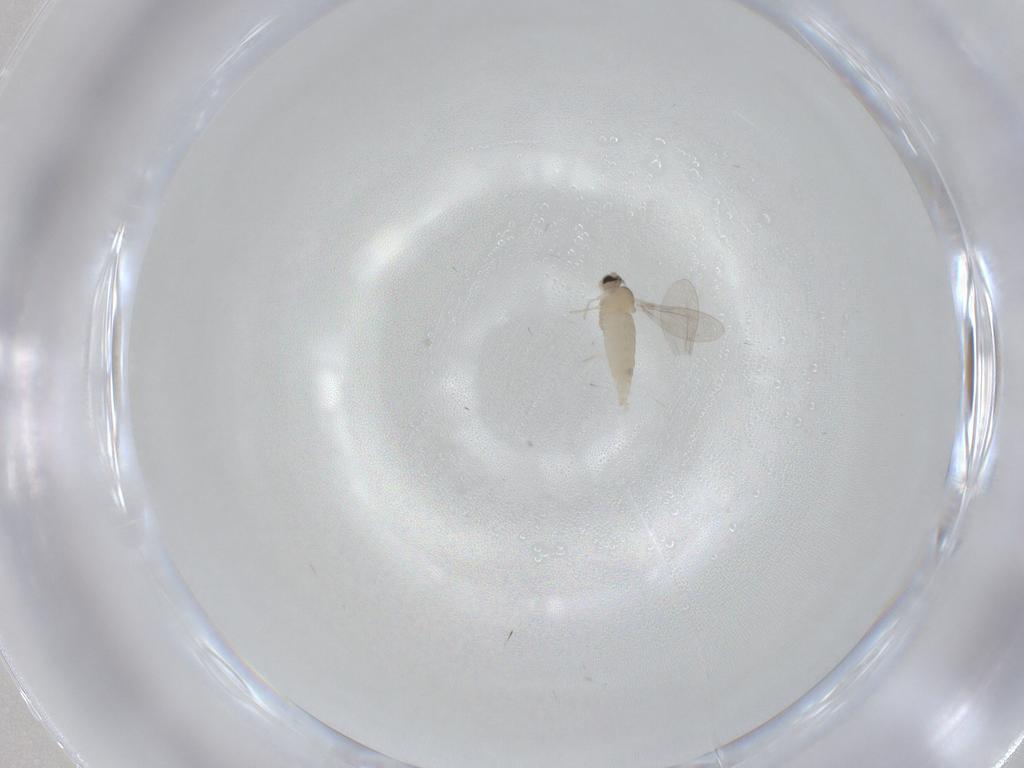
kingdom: Animalia
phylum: Arthropoda
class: Insecta
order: Diptera
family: Cecidomyiidae
